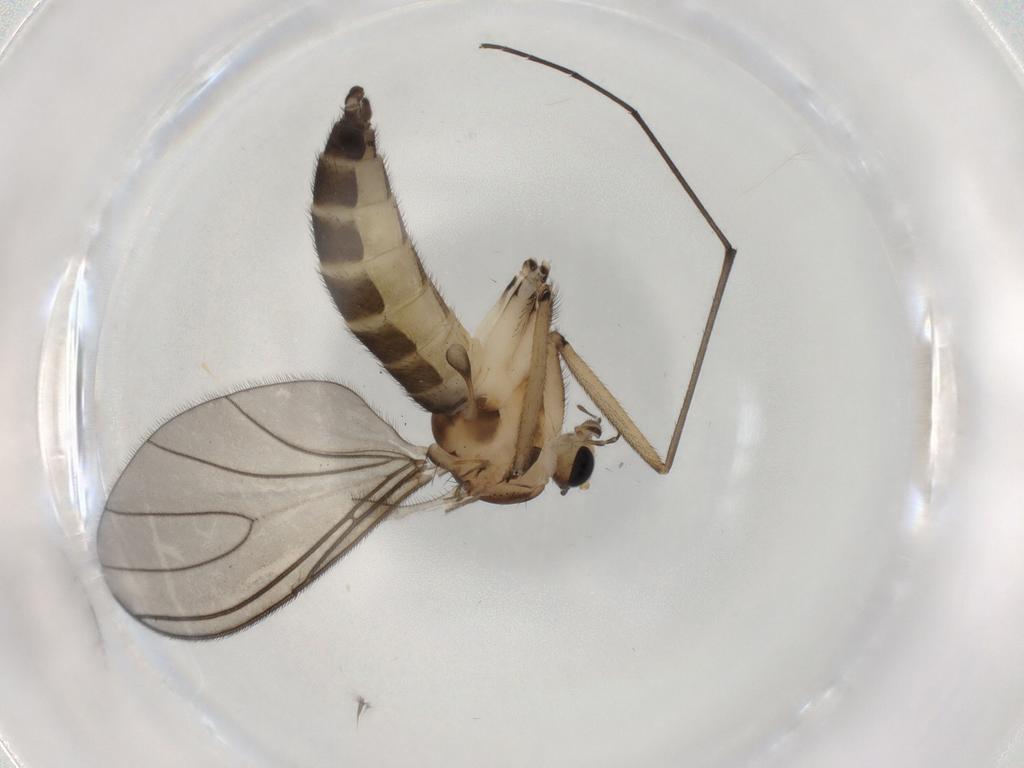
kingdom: Animalia
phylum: Arthropoda
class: Insecta
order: Diptera
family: Sciaridae
